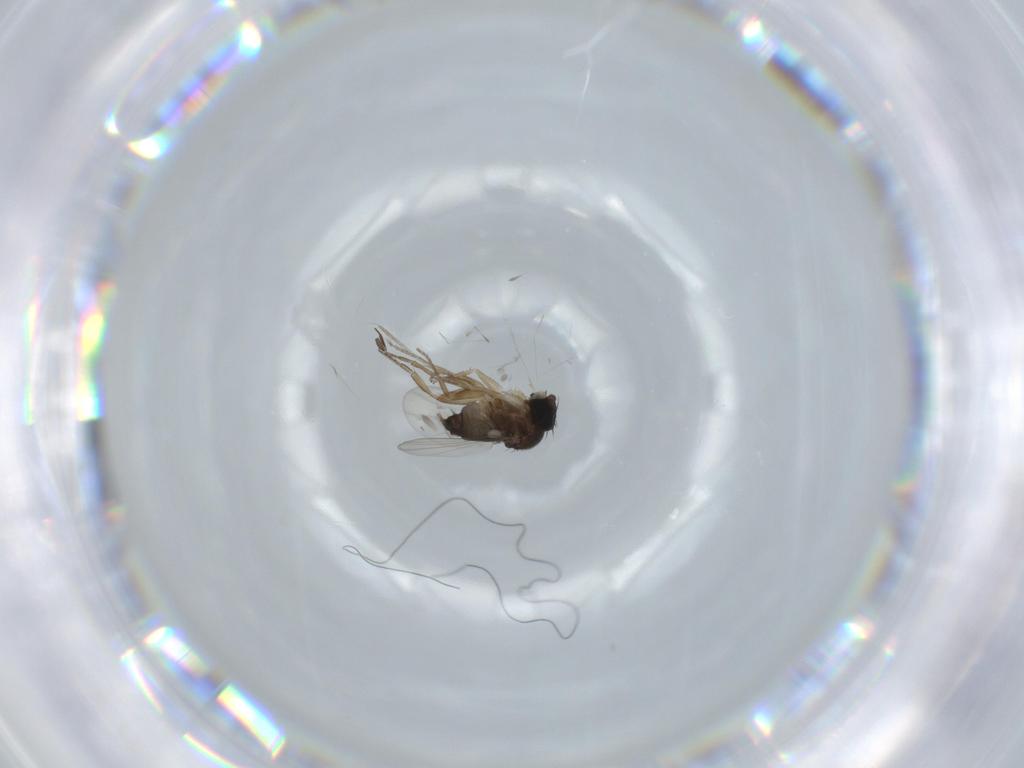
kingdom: Animalia
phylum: Arthropoda
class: Insecta
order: Diptera
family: Cecidomyiidae
